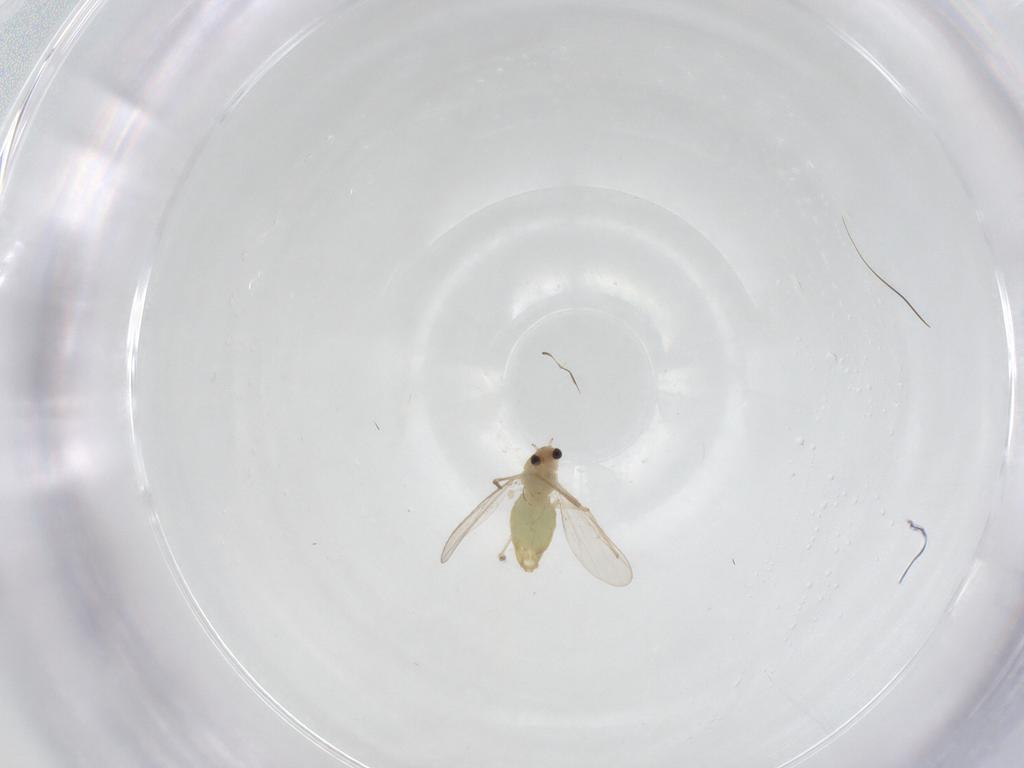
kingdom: Animalia
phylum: Arthropoda
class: Insecta
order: Diptera
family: Chironomidae
